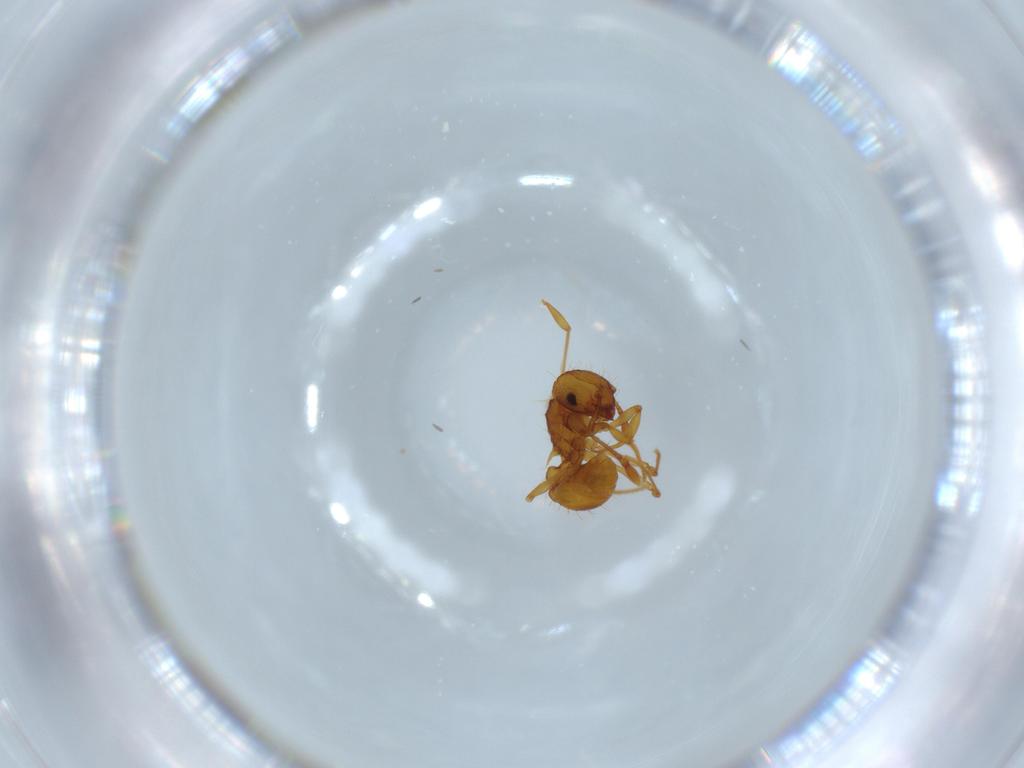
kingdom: Animalia
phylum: Arthropoda
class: Insecta
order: Hymenoptera
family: Formicidae
